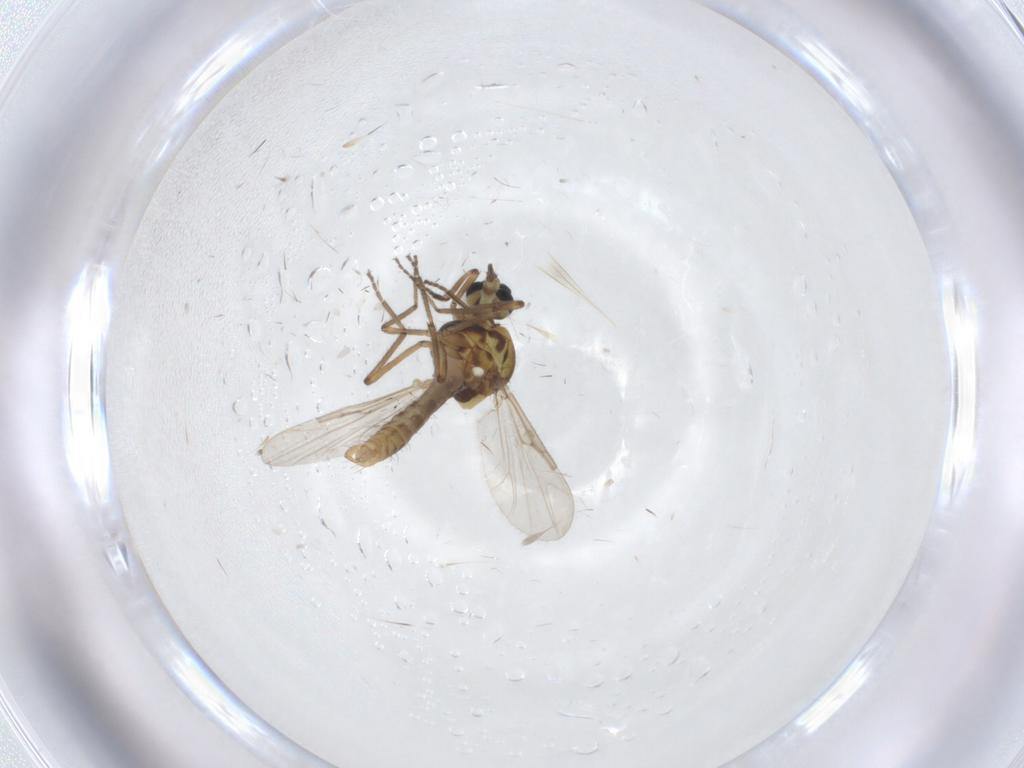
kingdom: Animalia
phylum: Arthropoda
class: Insecta
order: Diptera
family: Ceratopogonidae
